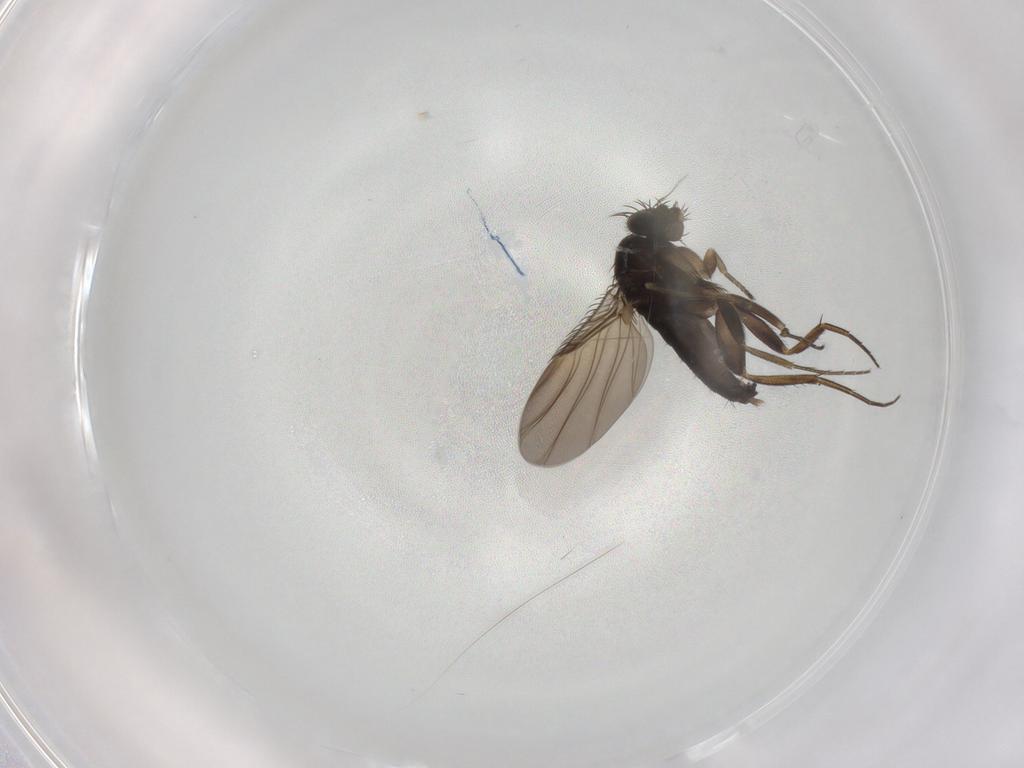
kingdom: Animalia
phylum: Arthropoda
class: Insecta
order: Diptera
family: Phoridae
